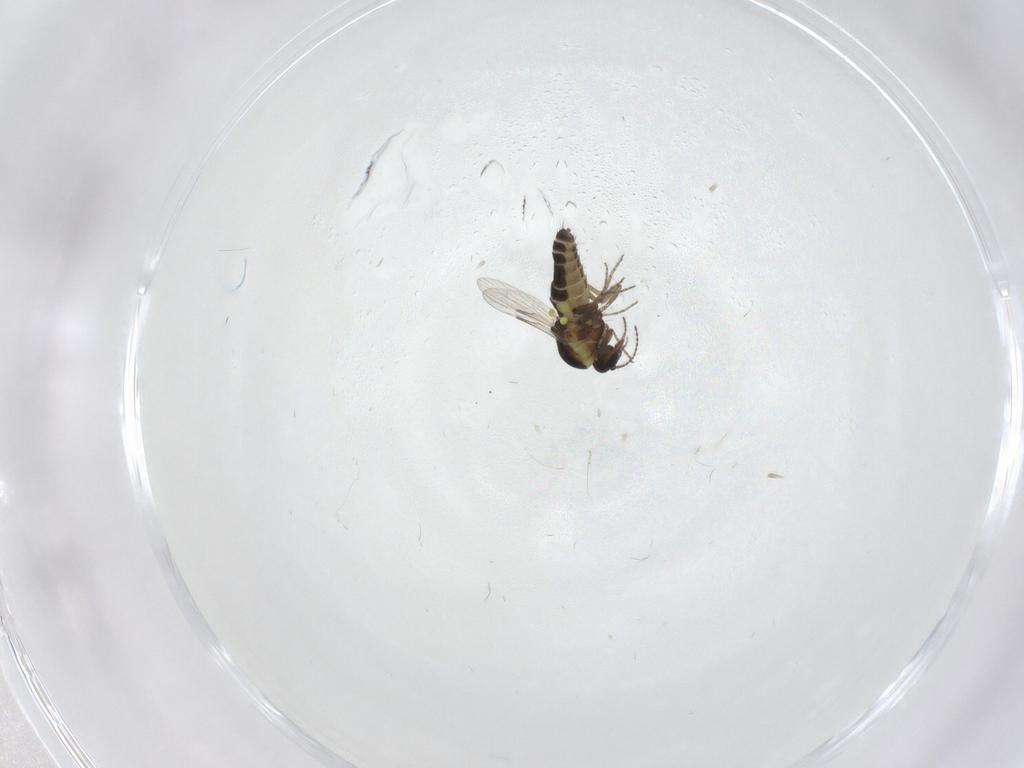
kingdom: Animalia
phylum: Arthropoda
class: Insecta
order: Diptera
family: Ceratopogonidae
